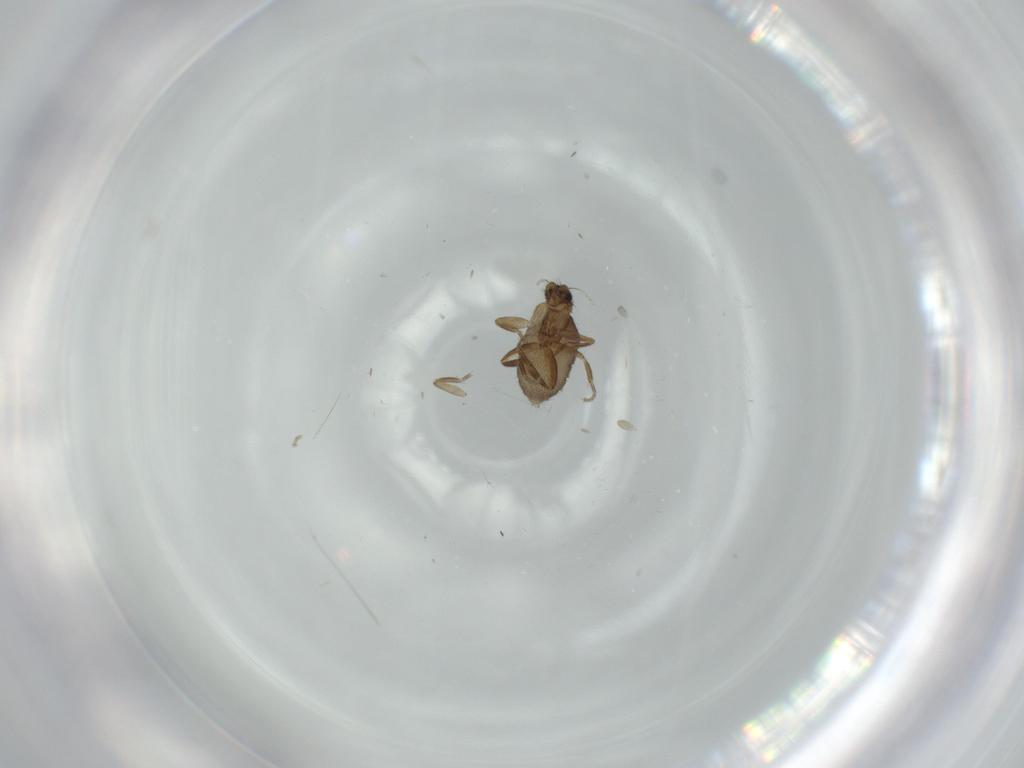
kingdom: Animalia
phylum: Arthropoda
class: Insecta
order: Diptera
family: Phoridae
